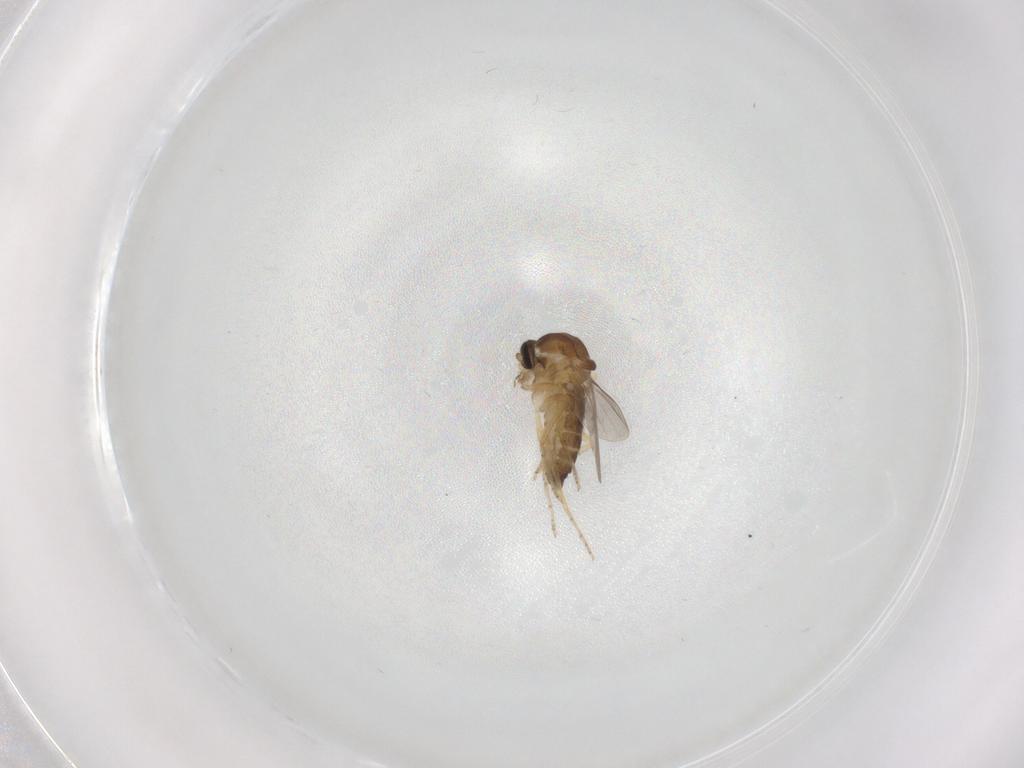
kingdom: Animalia
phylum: Arthropoda
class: Insecta
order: Diptera
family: Ceratopogonidae
